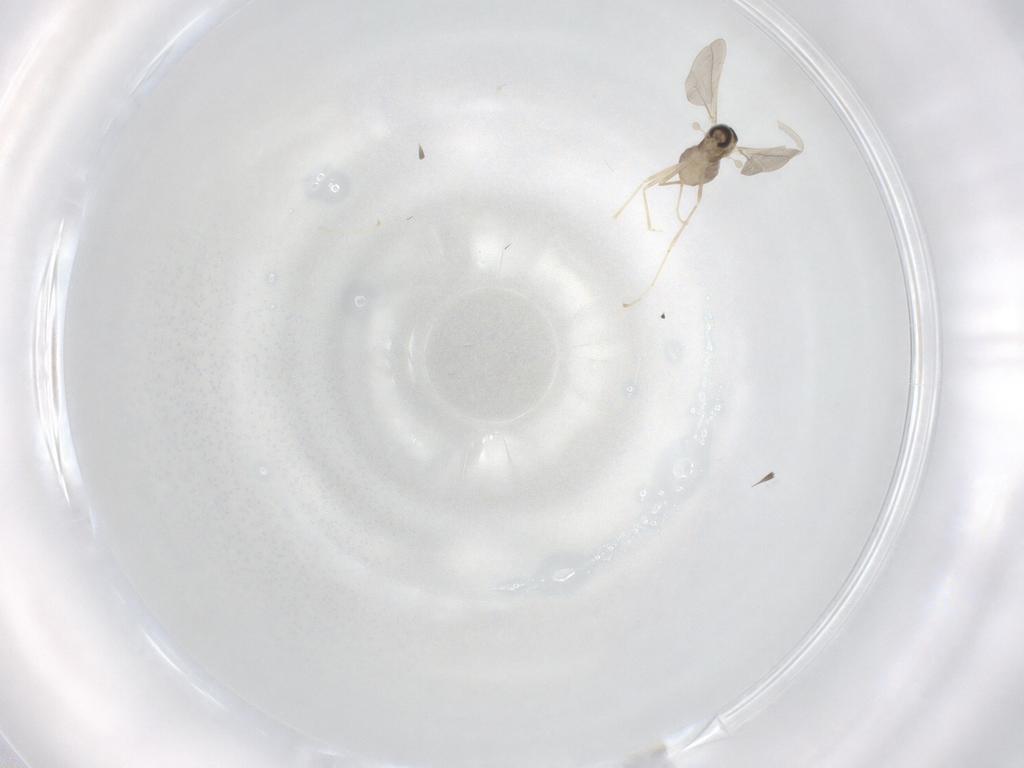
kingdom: Animalia
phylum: Arthropoda
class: Insecta
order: Diptera
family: Cecidomyiidae
